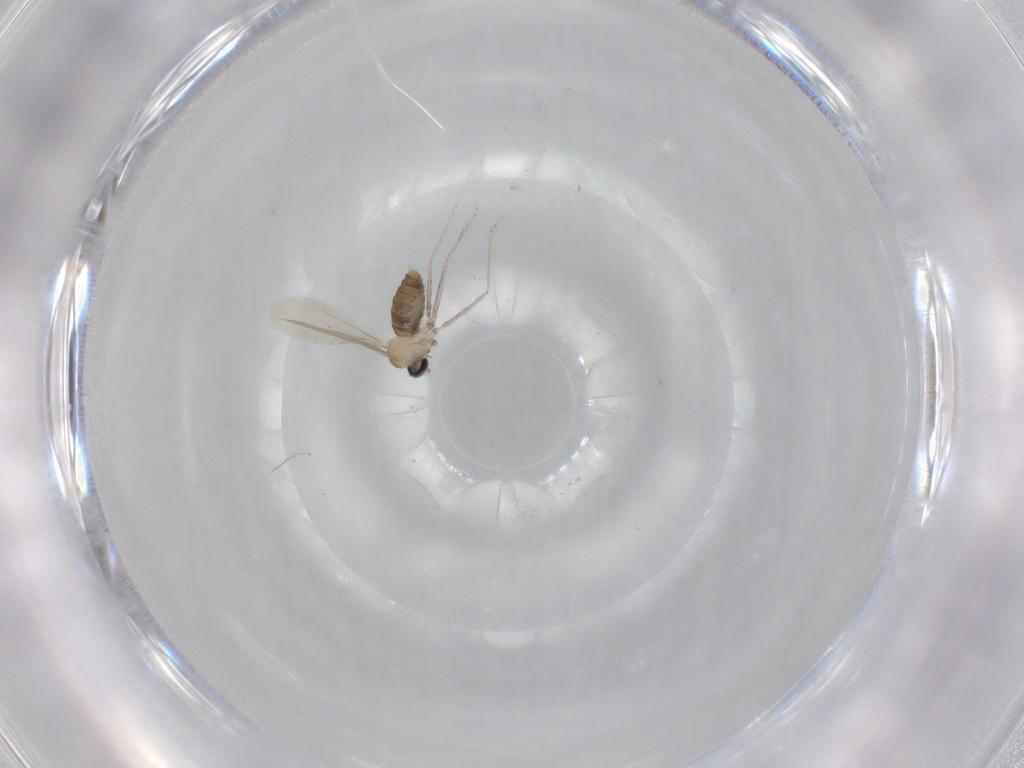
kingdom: Animalia
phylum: Arthropoda
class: Insecta
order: Diptera
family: Cecidomyiidae
